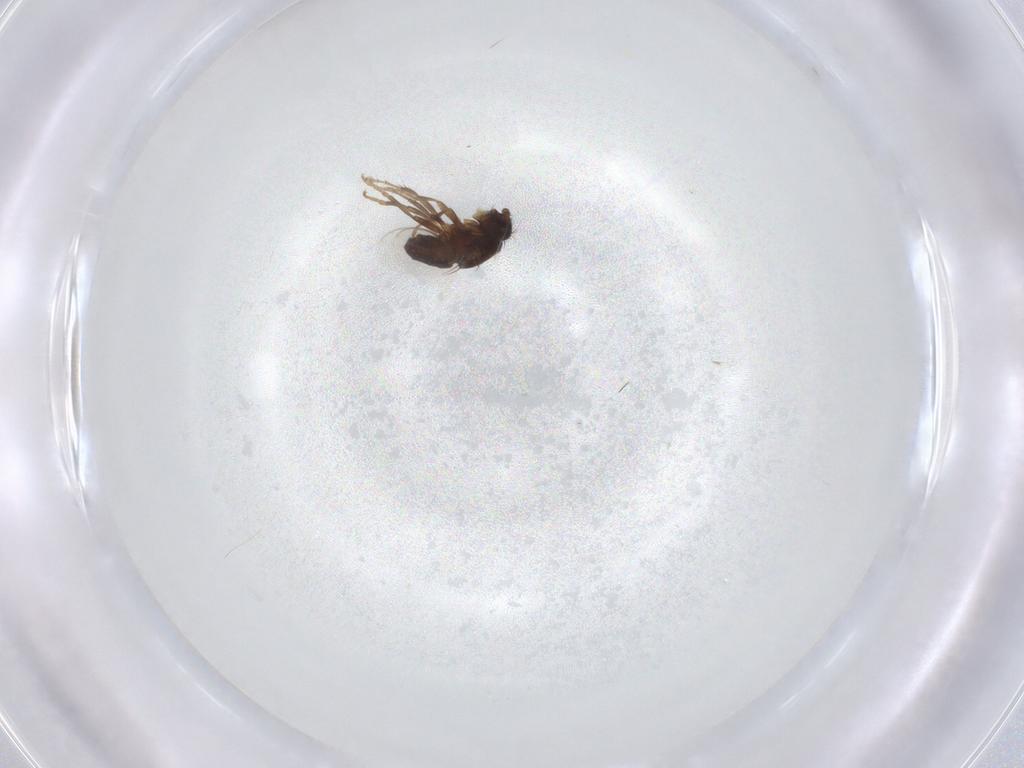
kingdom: Animalia
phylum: Arthropoda
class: Insecta
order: Diptera
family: Sphaeroceridae
